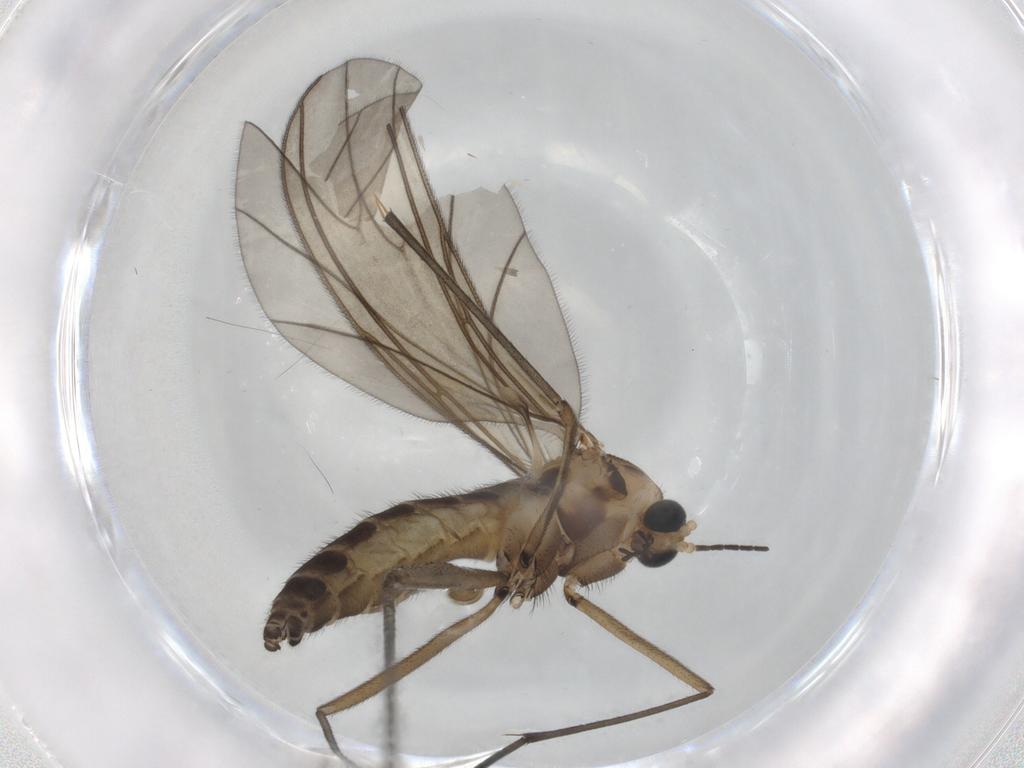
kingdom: Animalia
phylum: Arthropoda
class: Insecta
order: Diptera
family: Sciaridae
